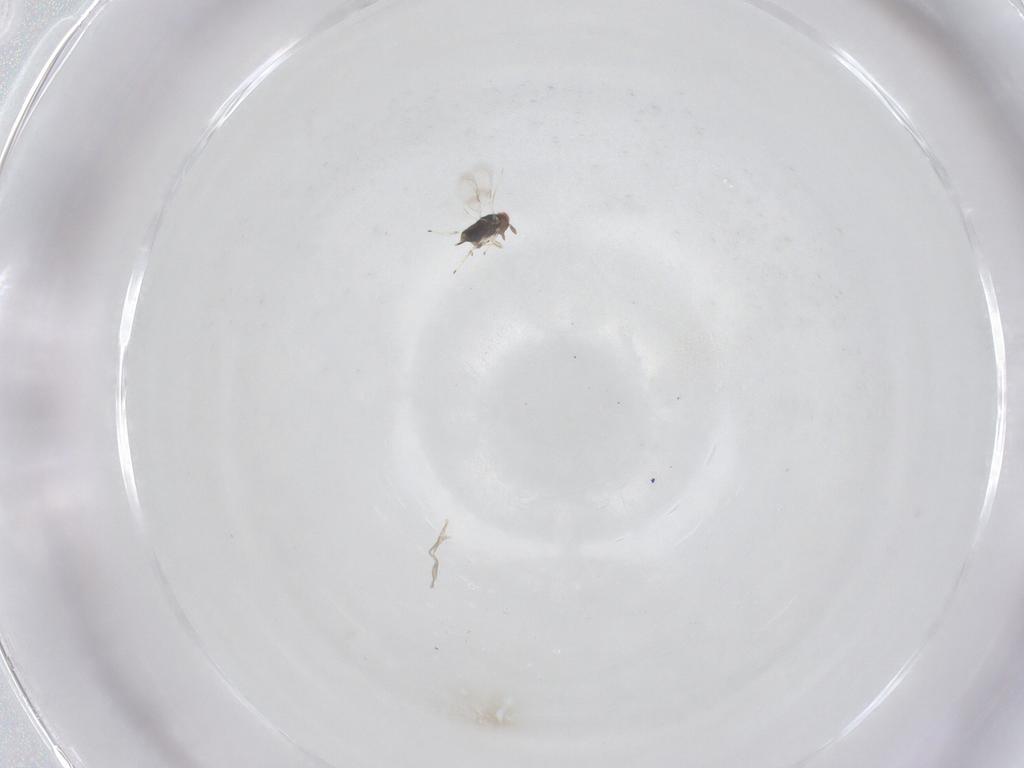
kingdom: Animalia
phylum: Arthropoda
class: Insecta
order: Hymenoptera
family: Azotidae
